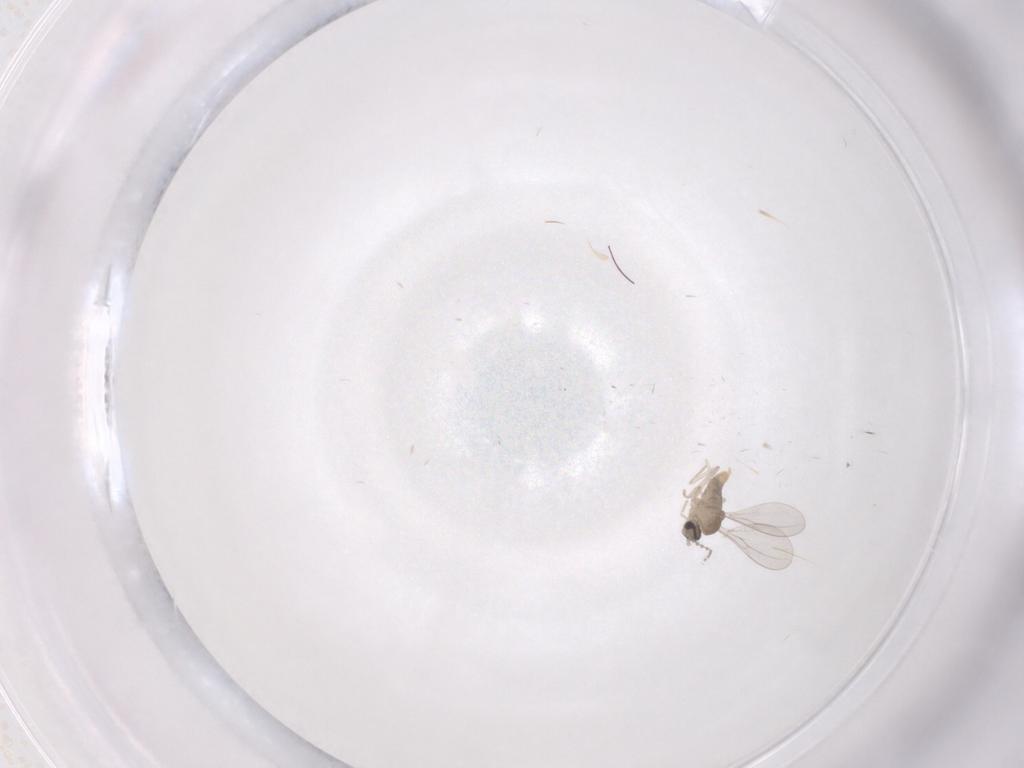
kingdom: Animalia
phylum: Arthropoda
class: Insecta
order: Diptera
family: Cecidomyiidae
